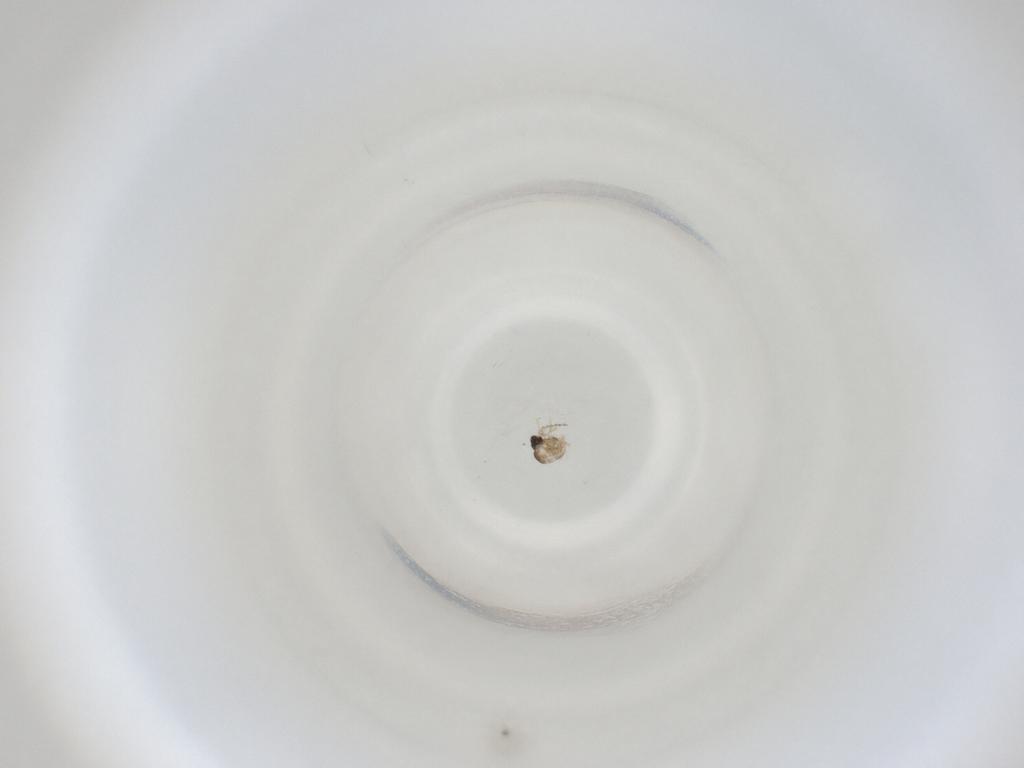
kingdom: Animalia
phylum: Arthropoda
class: Insecta
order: Diptera
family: Cecidomyiidae
